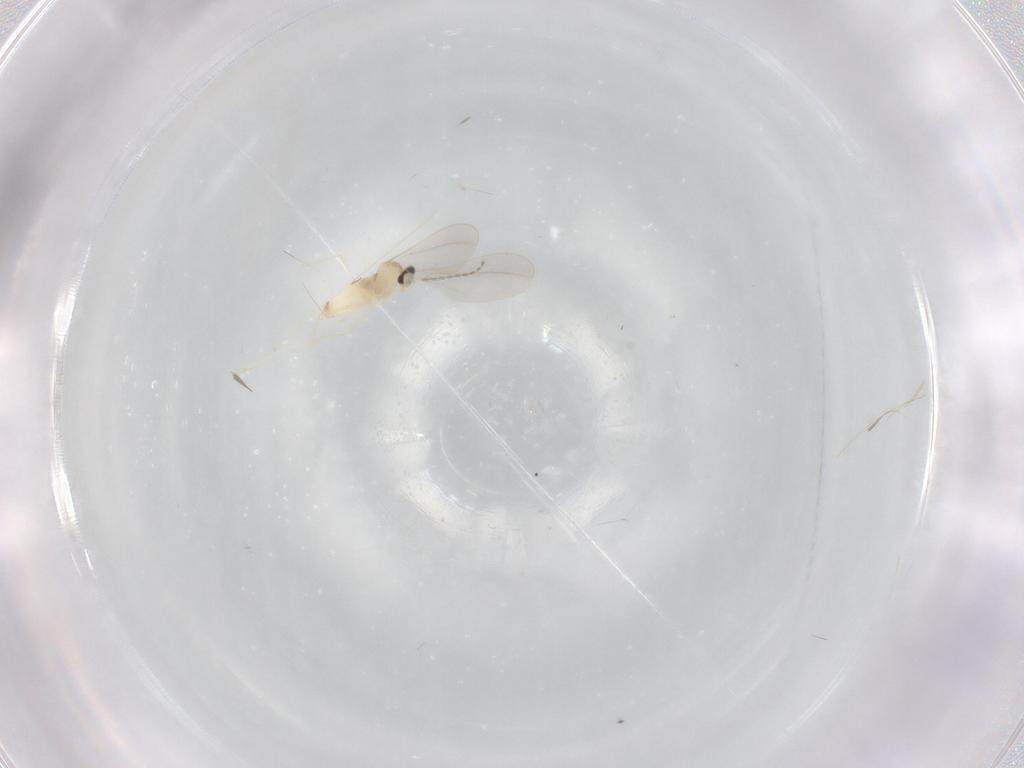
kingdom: Animalia
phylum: Arthropoda
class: Insecta
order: Diptera
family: Cecidomyiidae
